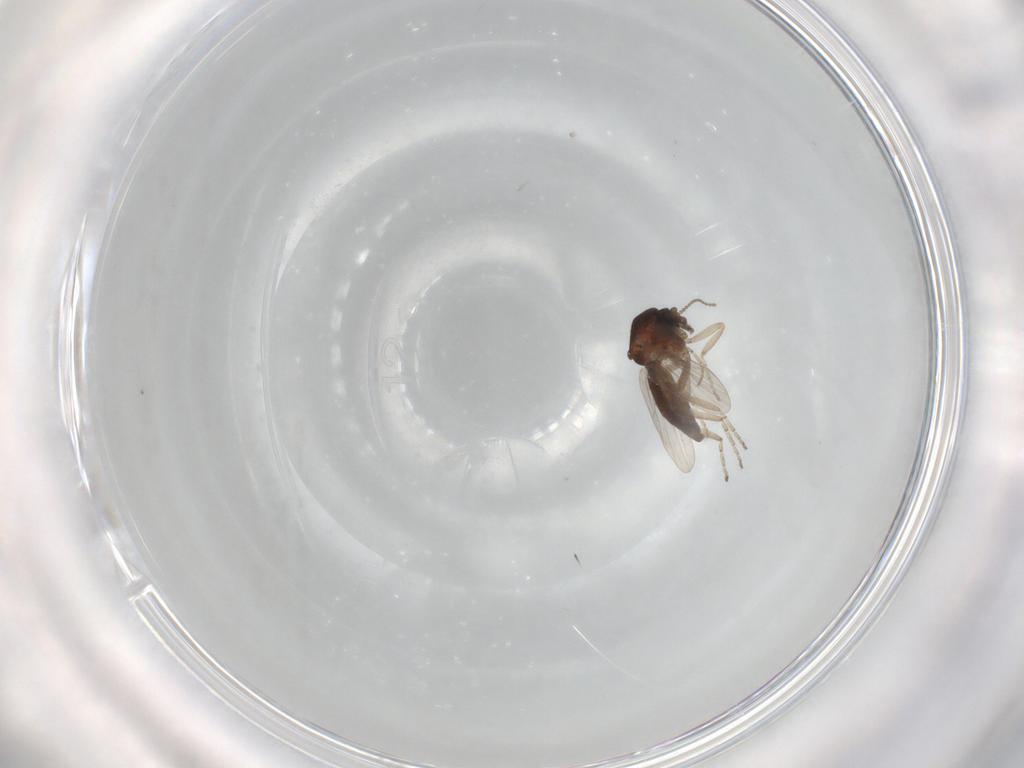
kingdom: Animalia
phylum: Arthropoda
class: Insecta
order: Diptera
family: Ceratopogonidae
